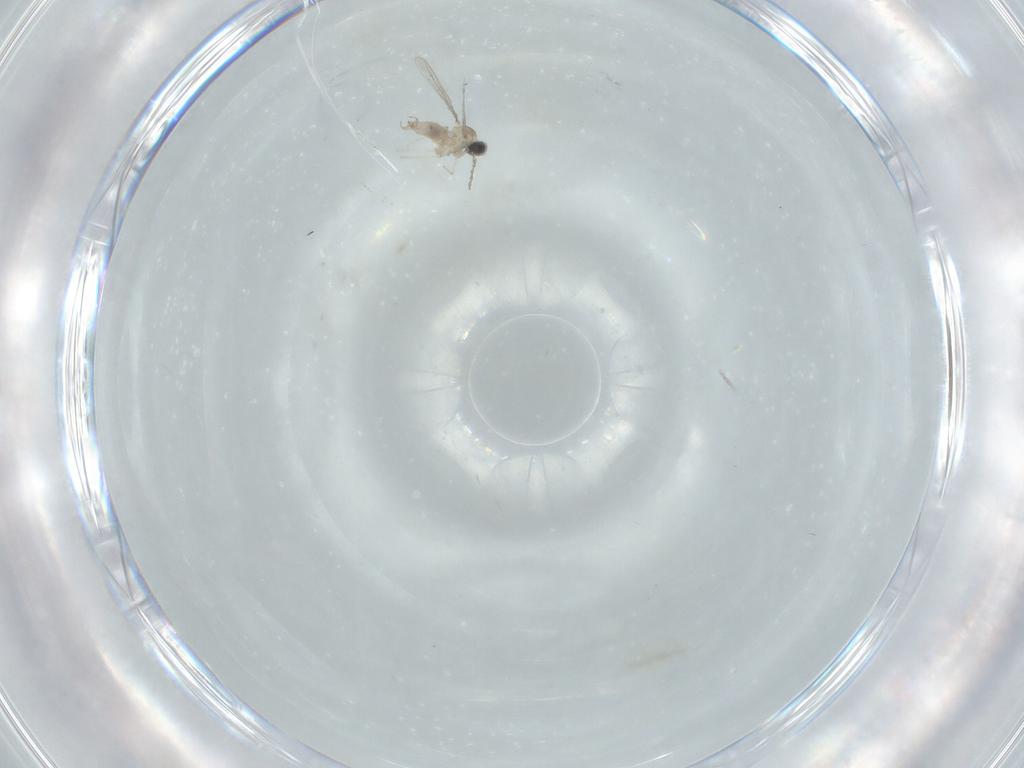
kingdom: Animalia
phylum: Arthropoda
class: Insecta
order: Diptera
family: Cecidomyiidae
